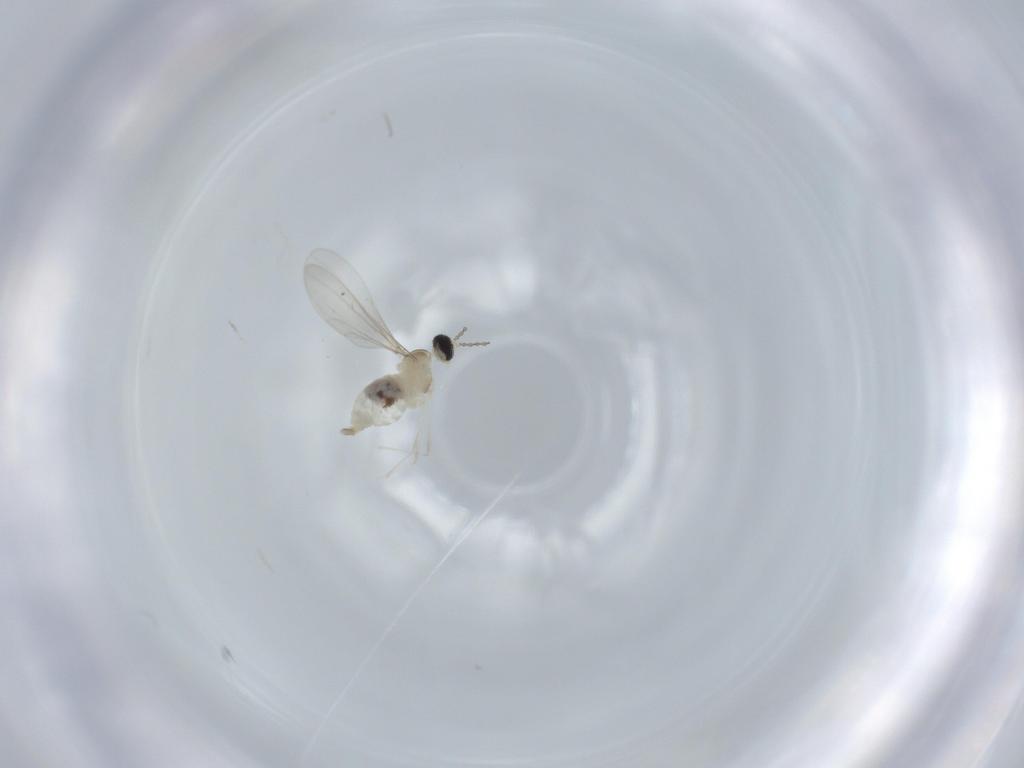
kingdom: Animalia
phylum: Arthropoda
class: Insecta
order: Diptera
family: Cecidomyiidae
